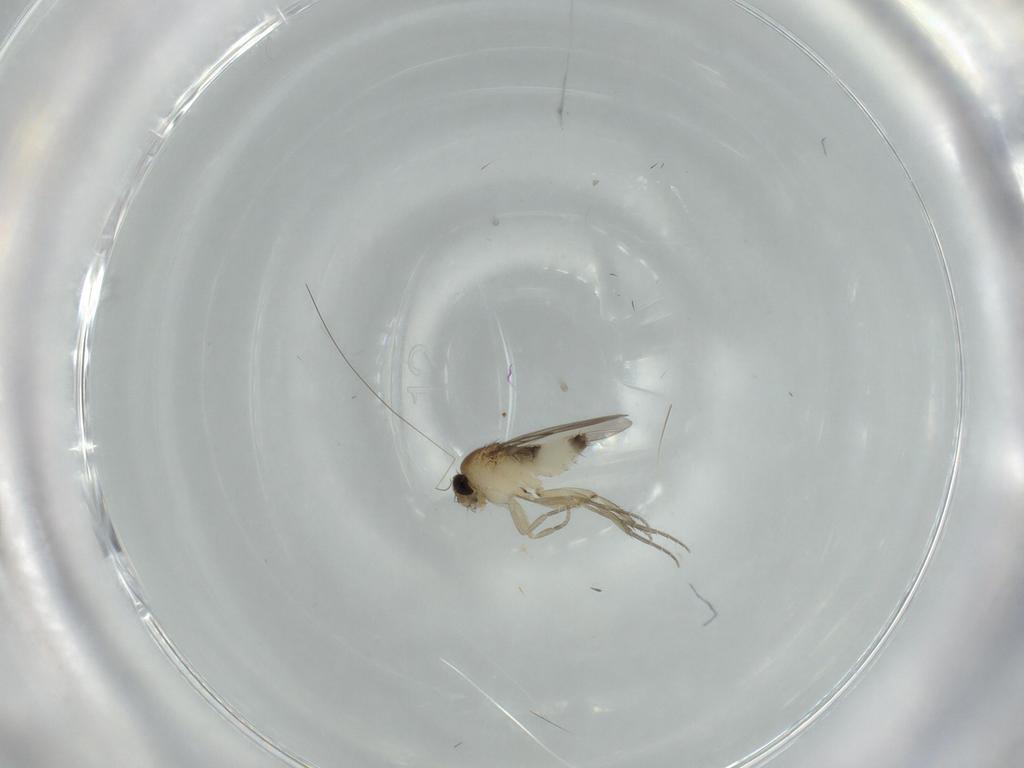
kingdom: Animalia
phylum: Arthropoda
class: Insecta
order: Diptera
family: Phoridae
